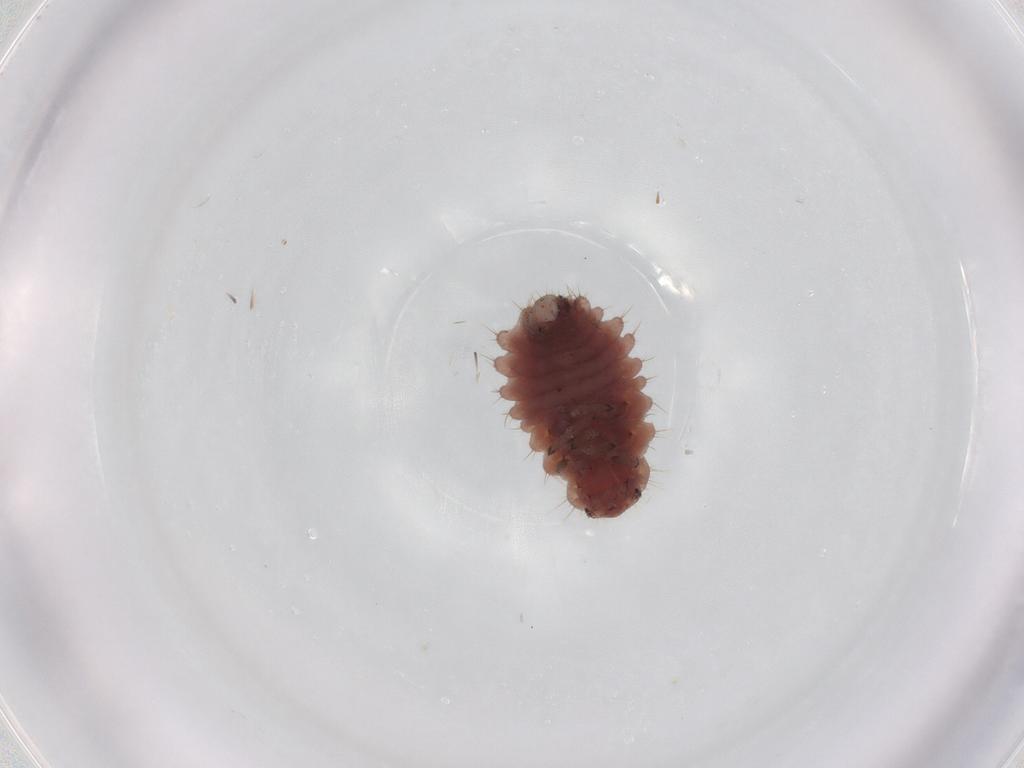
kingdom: Animalia
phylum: Arthropoda
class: Insecta
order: Coleoptera
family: Coccinellidae
